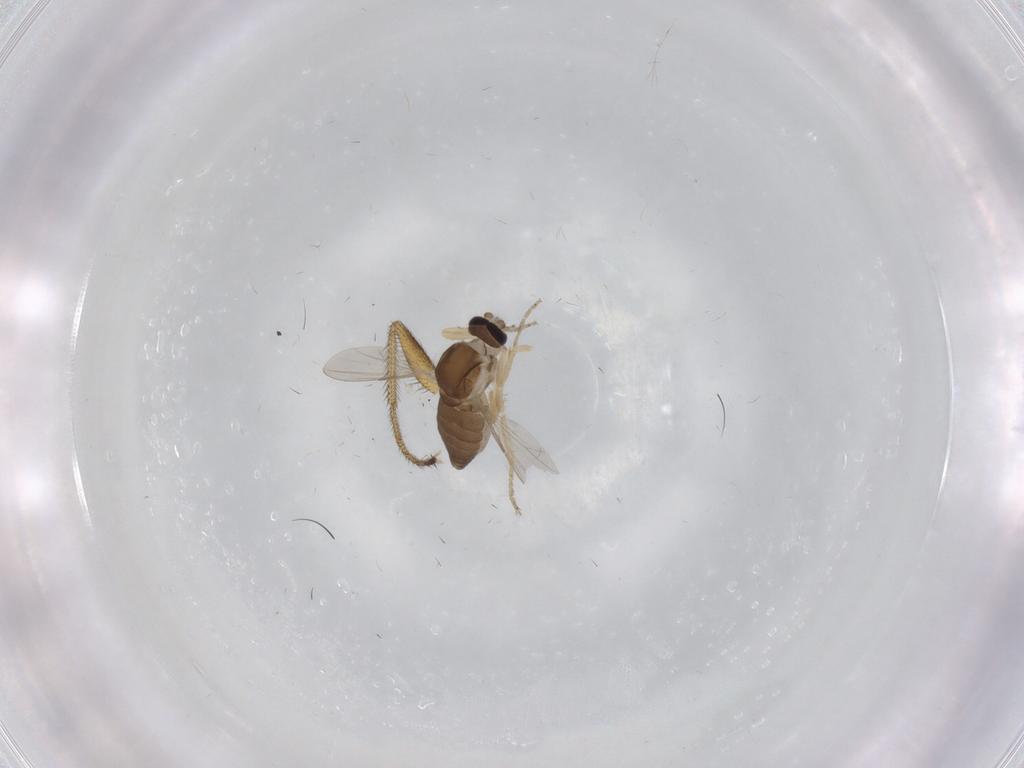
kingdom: Animalia
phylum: Arthropoda
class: Insecta
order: Diptera
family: Ceratopogonidae
